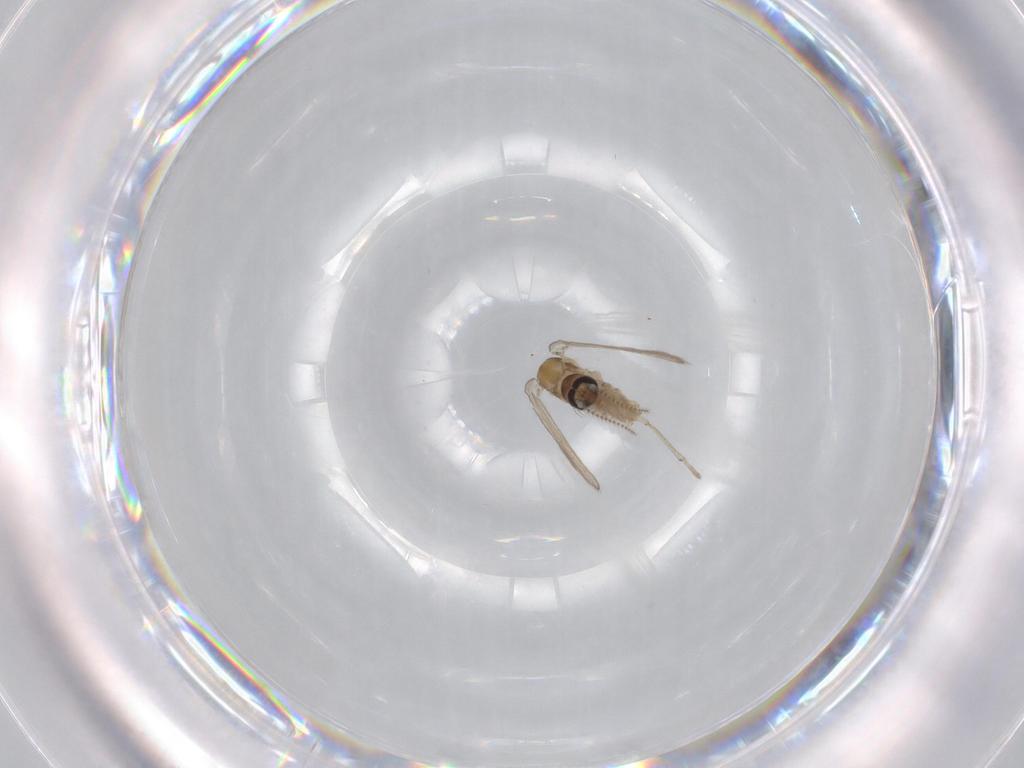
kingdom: Animalia
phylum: Arthropoda
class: Insecta
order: Diptera
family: Psychodidae
